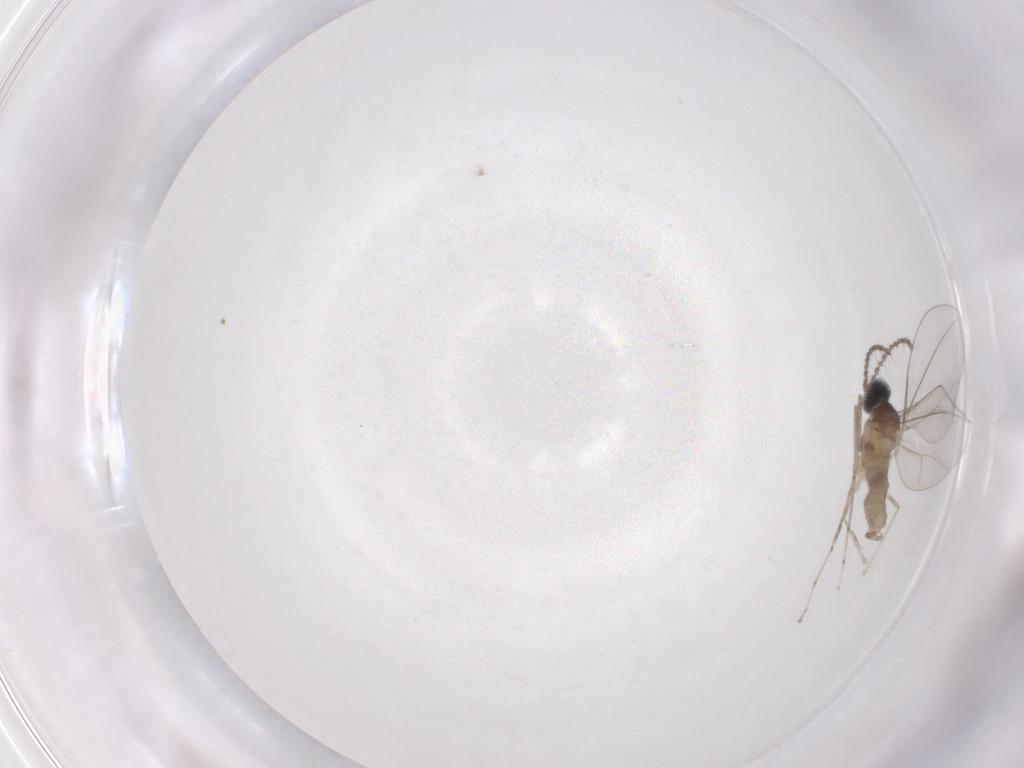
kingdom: Animalia
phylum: Arthropoda
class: Insecta
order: Diptera
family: Cecidomyiidae
